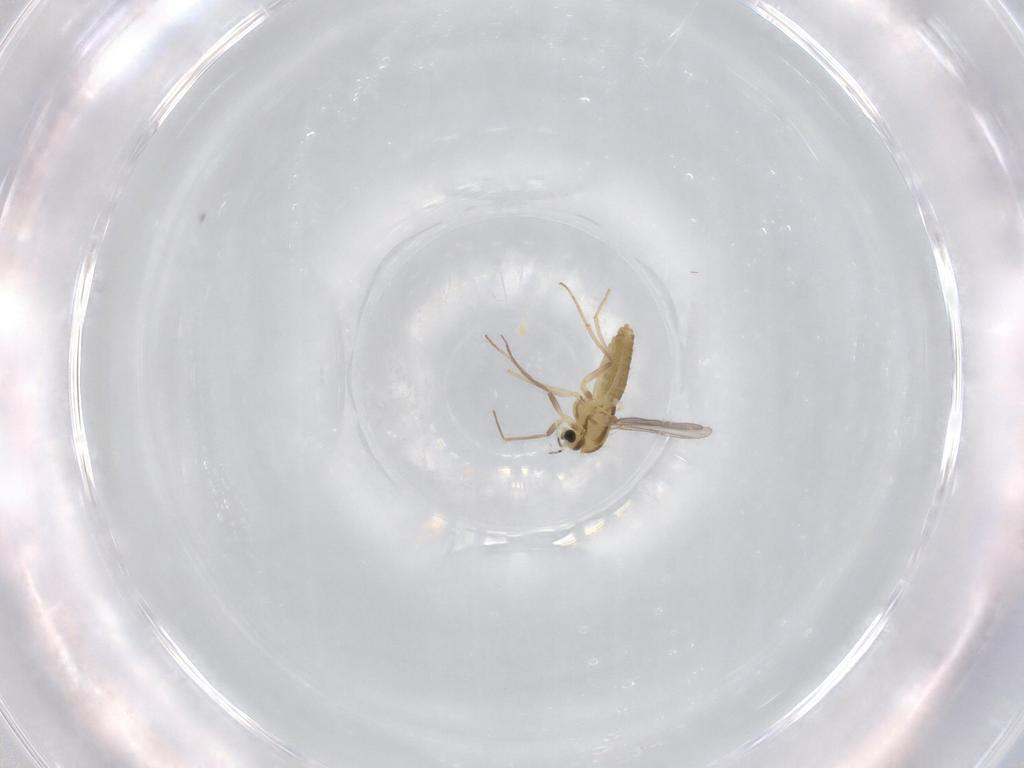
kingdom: Animalia
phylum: Arthropoda
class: Insecta
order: Diptera
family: Chironomidae
